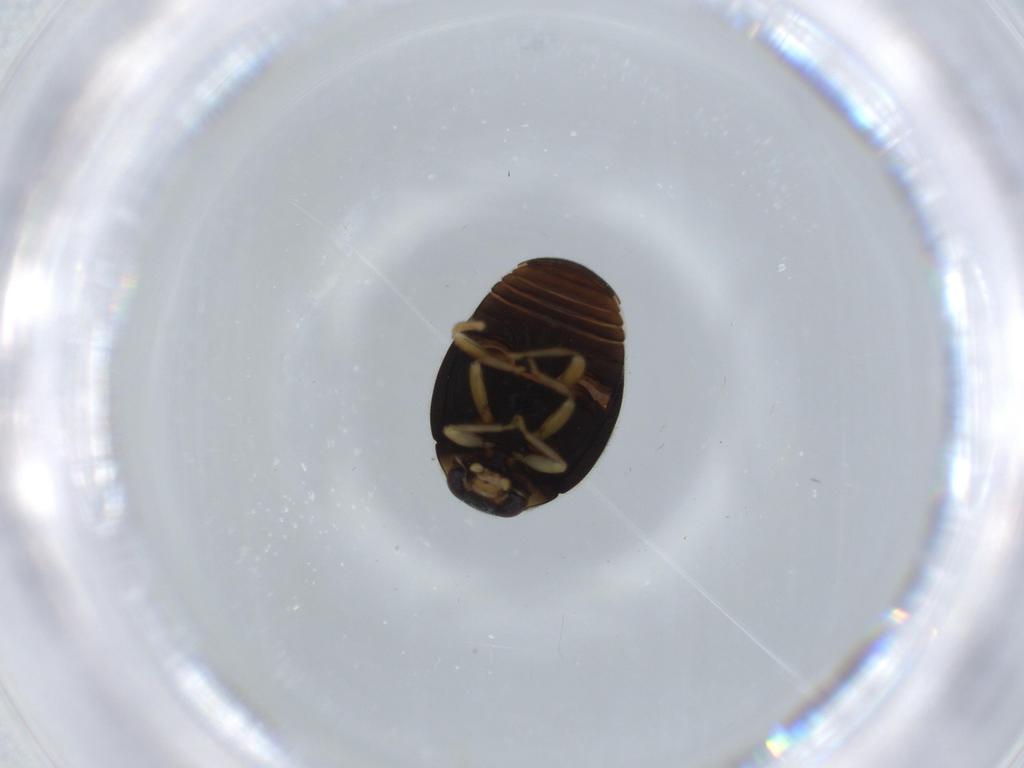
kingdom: Animalia
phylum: Arthropoda
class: Insecta
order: Coleoptera
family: Coccinellidae
